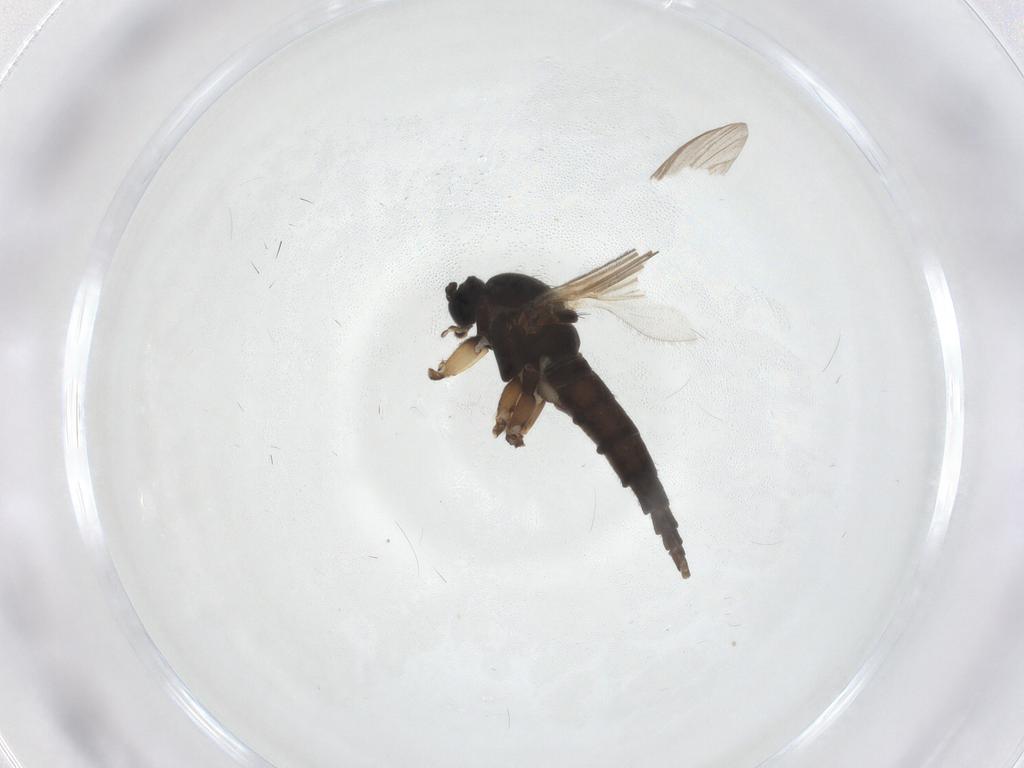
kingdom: Animalia
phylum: Arthropoda
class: Insecta
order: Diptera
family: Sciaridae
